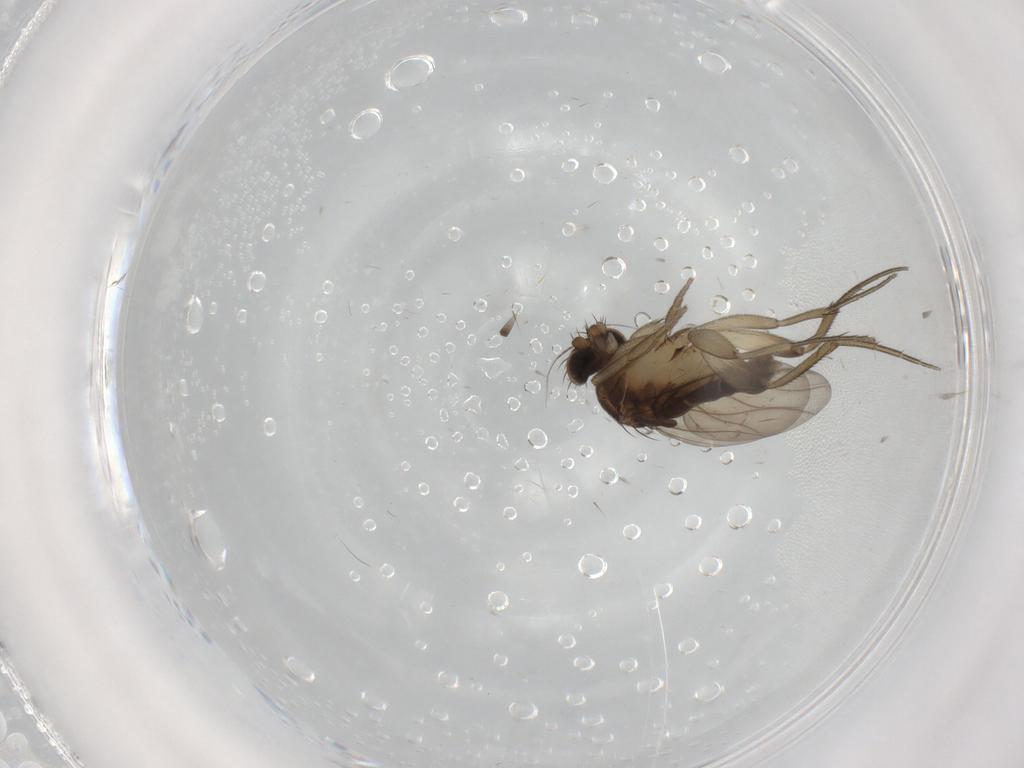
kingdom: Animalia
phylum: Arthropoda
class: Insecta
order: Diptera
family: Phoridae
